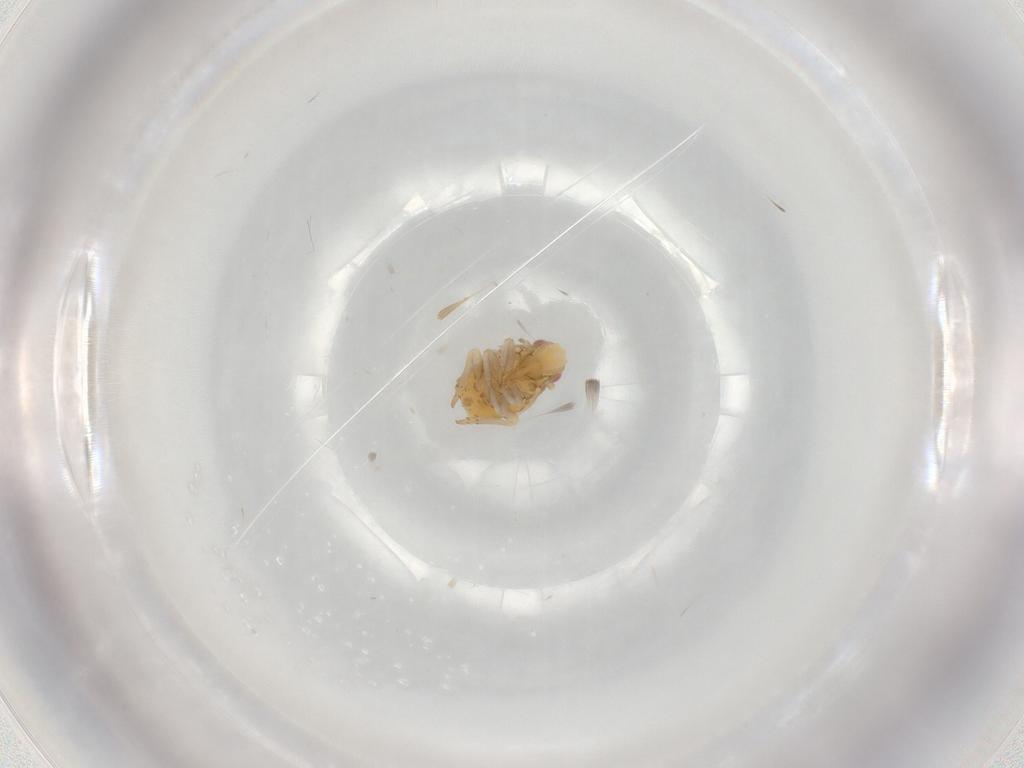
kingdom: Animalia
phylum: Arthropoda
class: Insecta
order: Hemiptera
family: Flatidae
